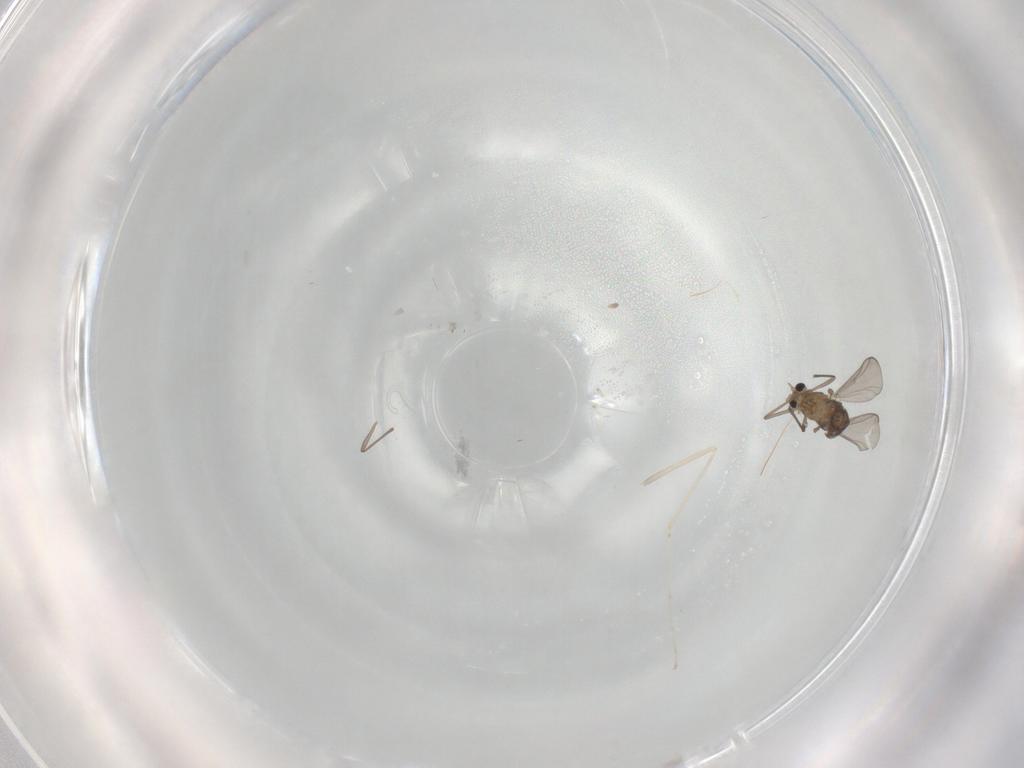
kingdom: Animalia
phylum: Arthropoda
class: Insecta
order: Diptera
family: Chironomidae
